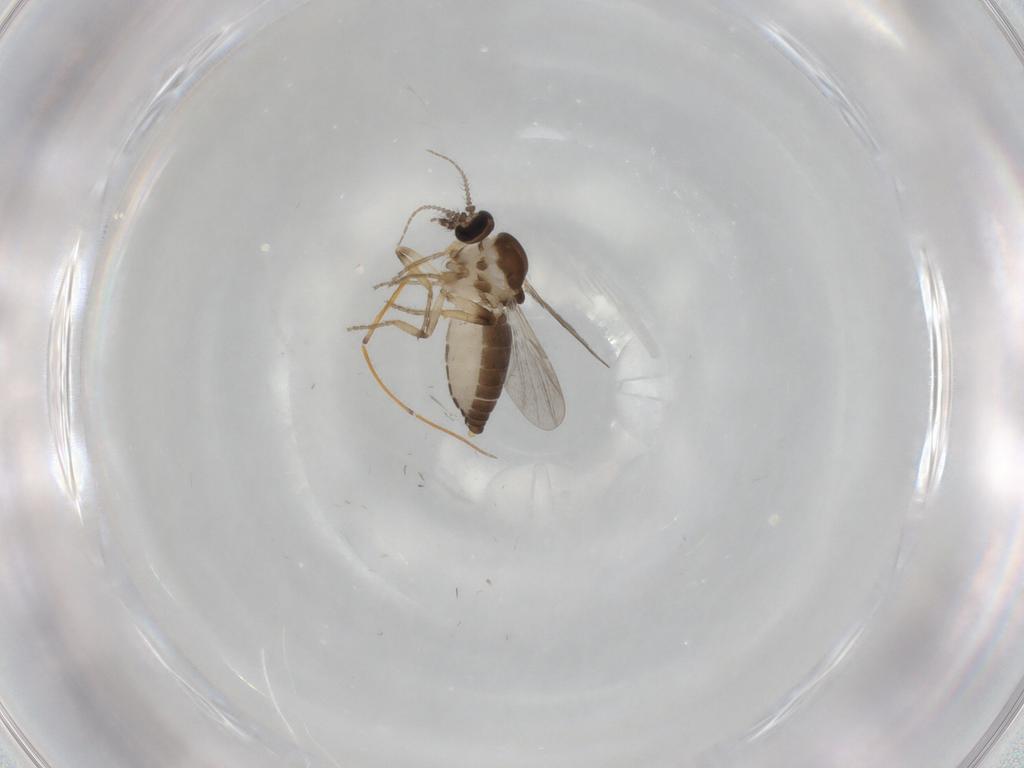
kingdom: Animalia
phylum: Arthropoda
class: Insecta
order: Diptera
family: Ceratopogonidae
